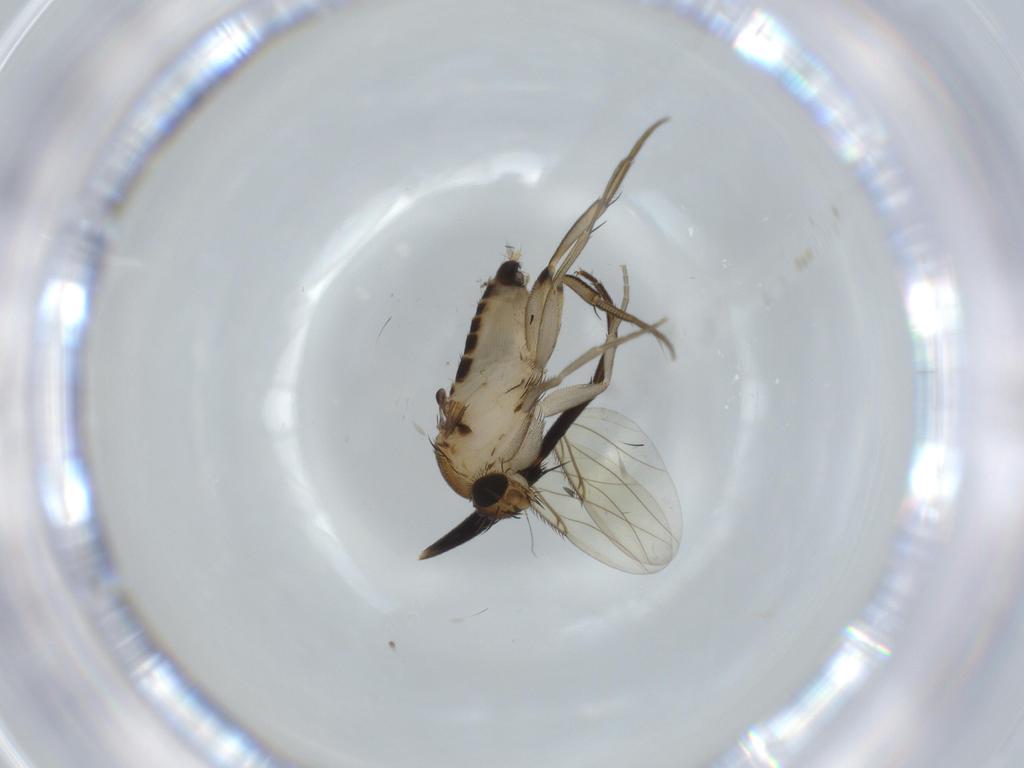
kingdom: Animalia
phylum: Arthropoda
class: Insecta
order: Diptera
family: Phoridae
